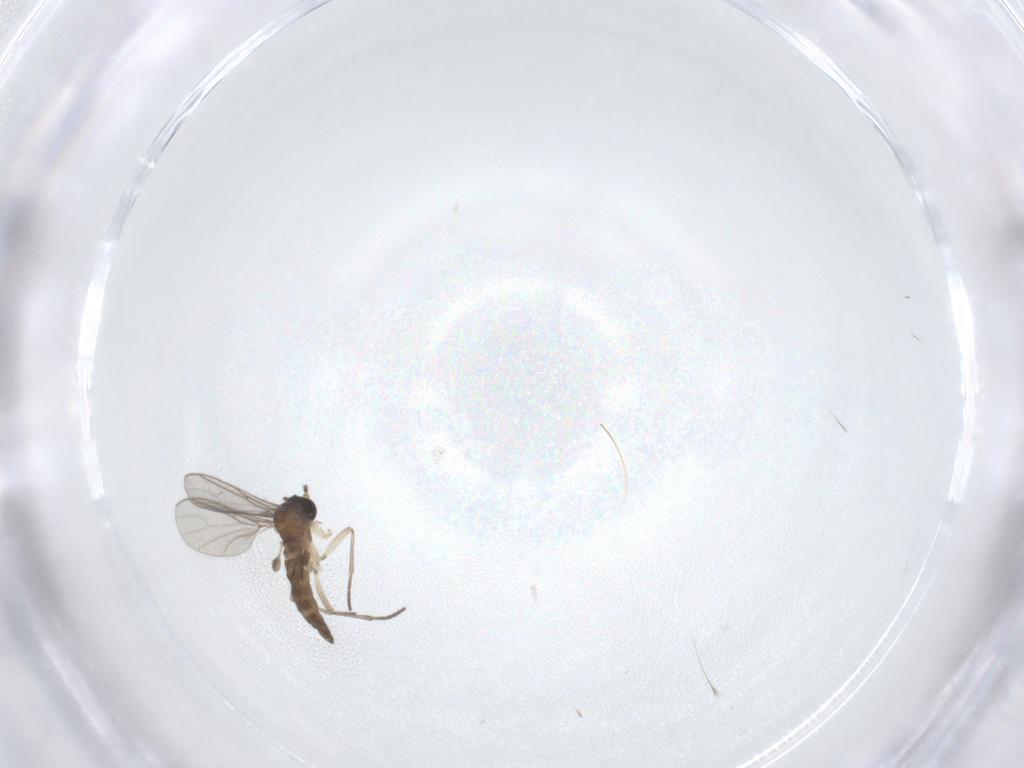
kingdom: Animalia
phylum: Arthropoda
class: Insecta
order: Diptera
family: Sciaridae
